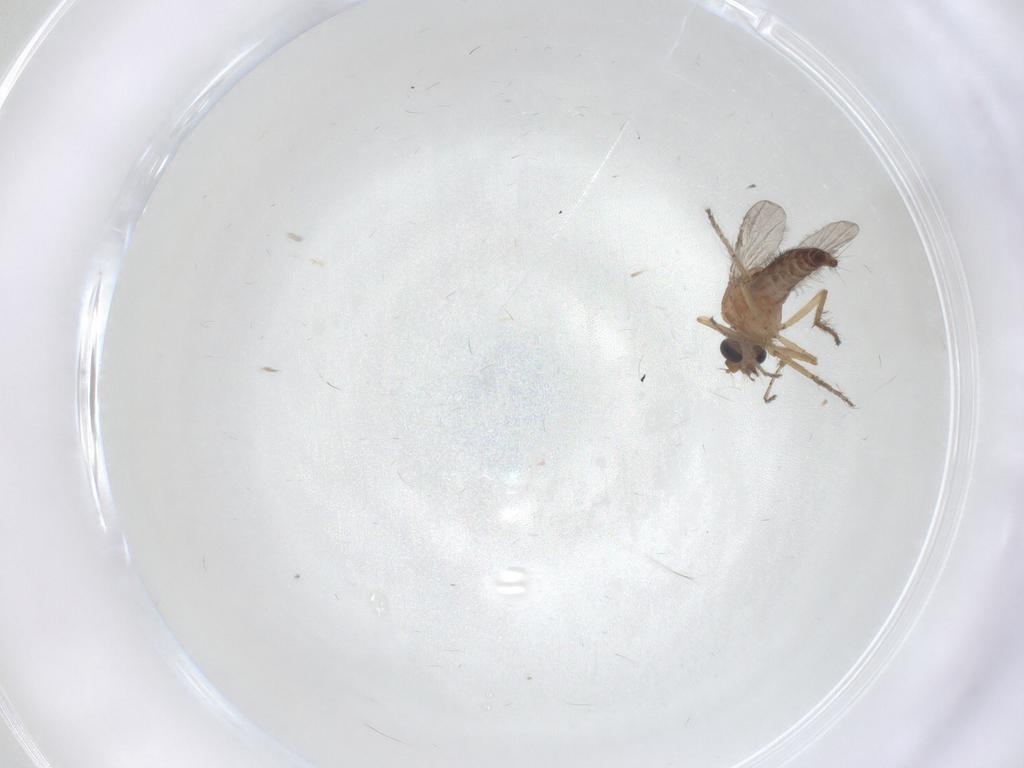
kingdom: Animalia
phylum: Arthropoda
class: Insecta
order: Diptera
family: Ceratopogonidae
